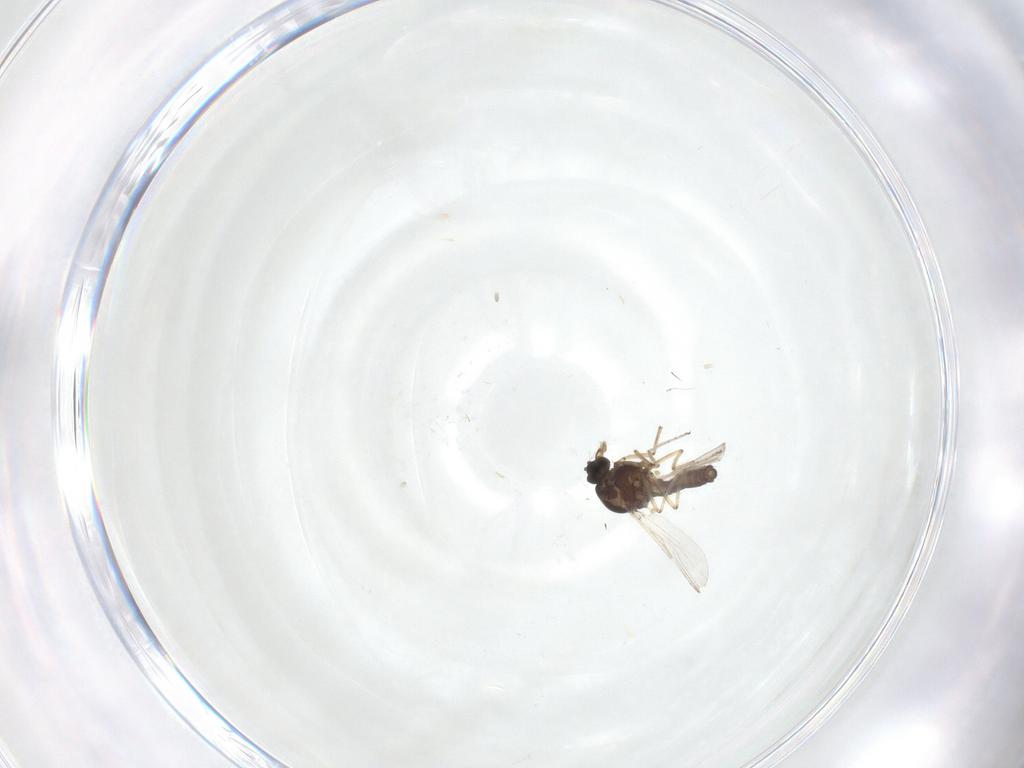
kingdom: Animalia
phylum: Arthropoda
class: Insecta
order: Diptera
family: Ceratopogonidae
